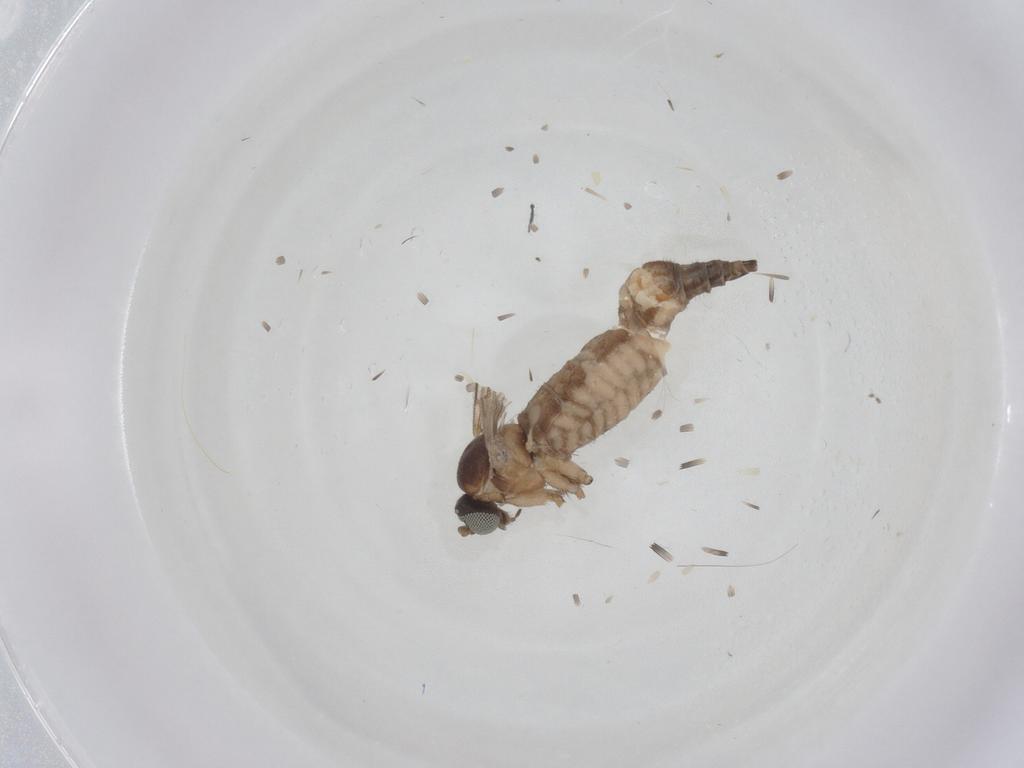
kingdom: Animalia
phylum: Arthropoda
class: Insecta
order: Diptera
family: Sciaridae
